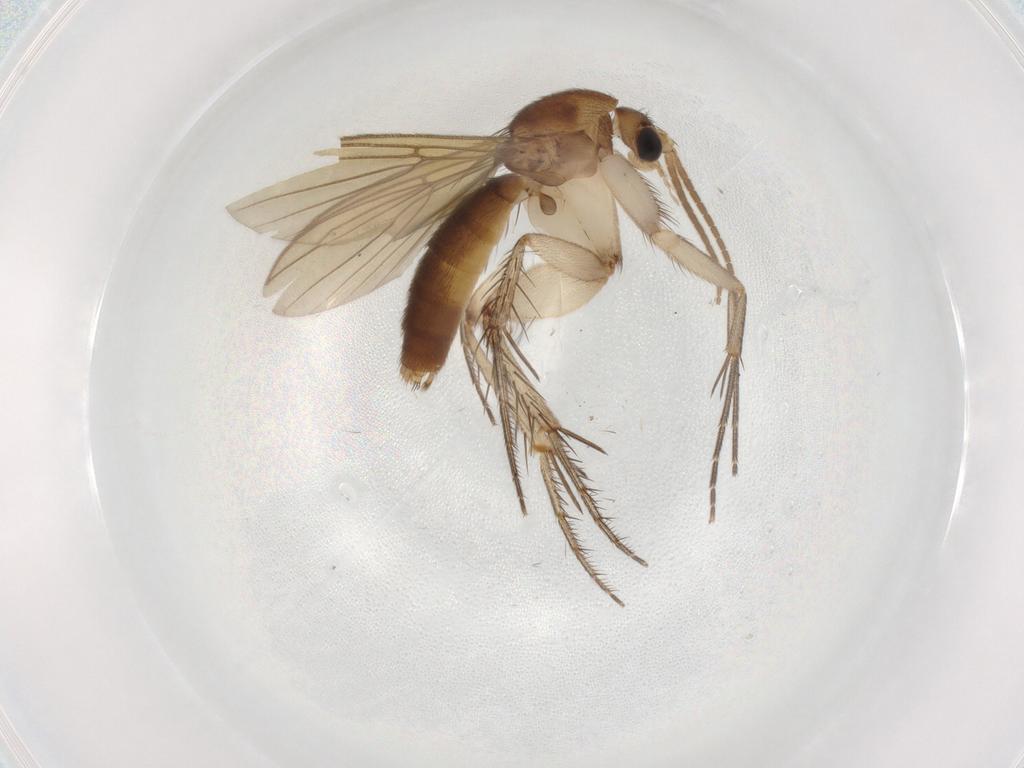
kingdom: Animalia
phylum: Arthropoda
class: Insecta
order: Diptera
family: Mycetophilidae
